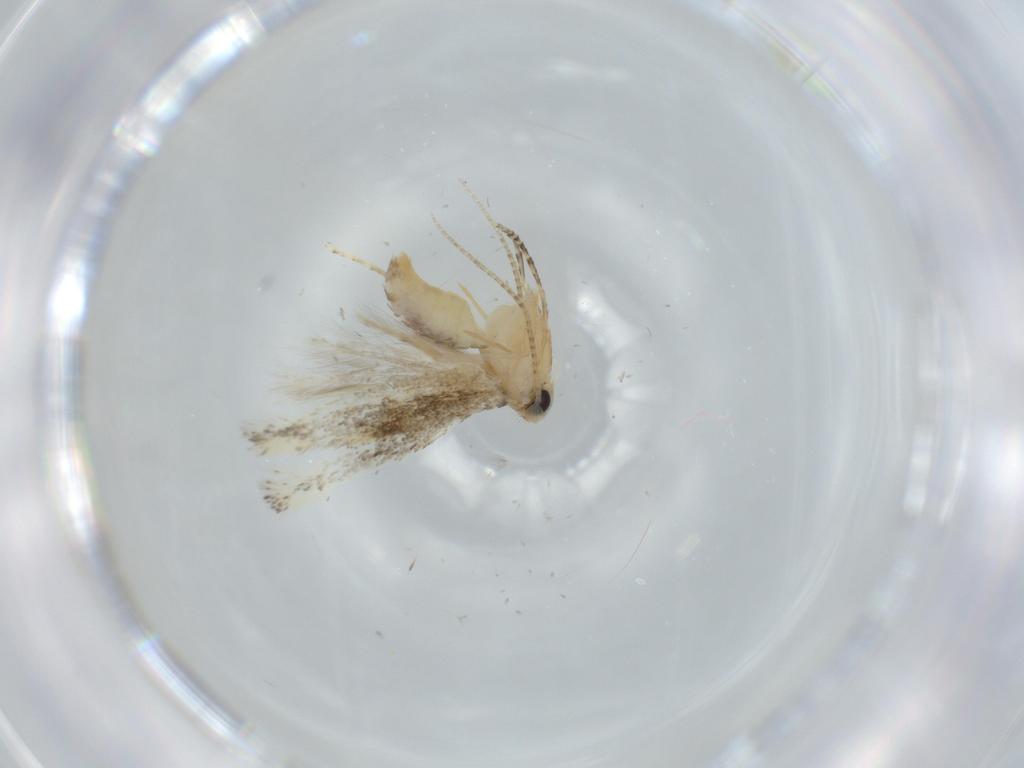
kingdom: Animalia
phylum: Arthropoda
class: Insecta
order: Lepidoptera
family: Bucculatricidae
